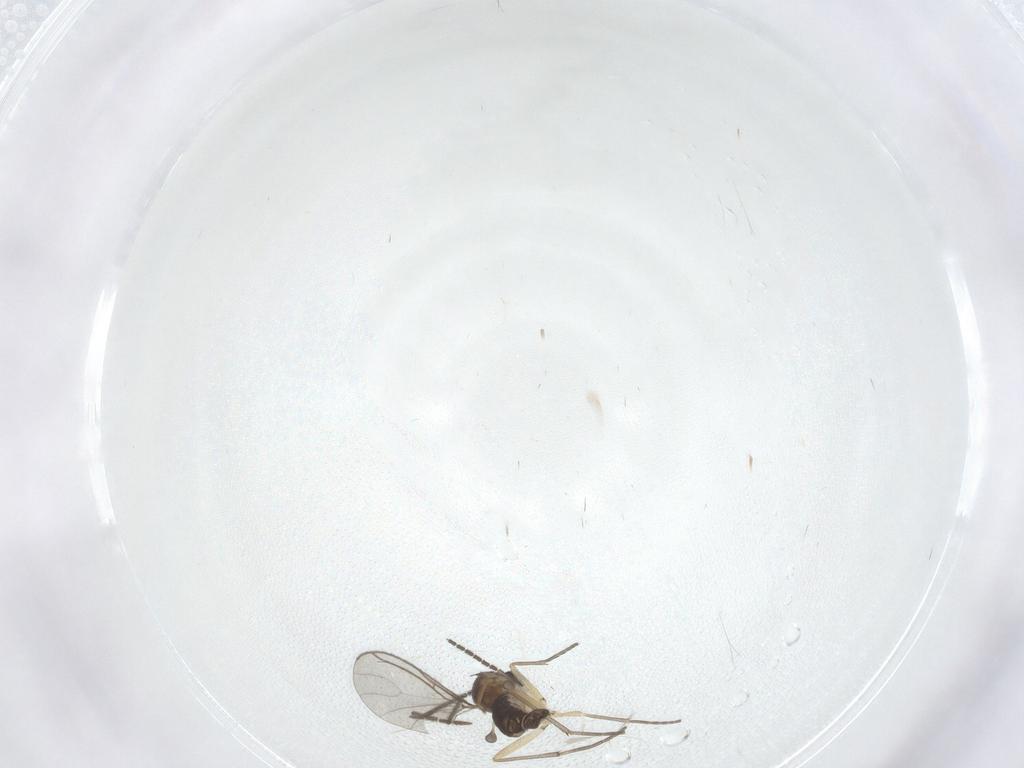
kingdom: Animalia
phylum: Arthropoda
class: Insecta
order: Diptera
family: Sciaridae
